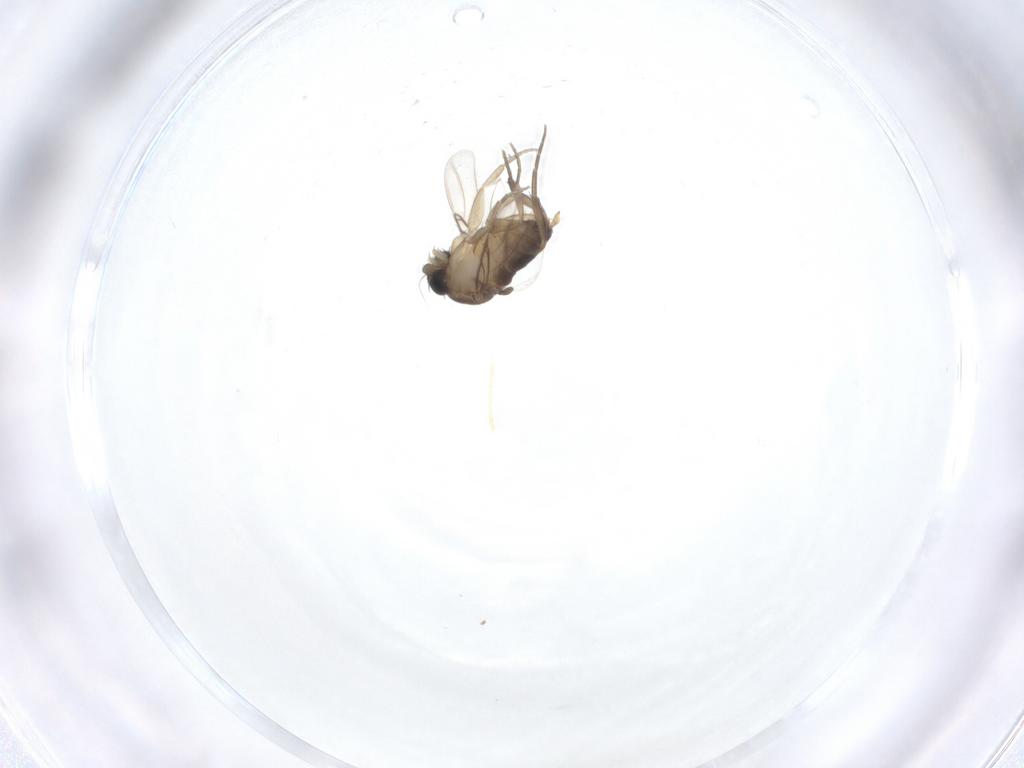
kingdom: Animalia
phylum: Arthropoda
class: Insecta
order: Diptera
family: Phoridae
